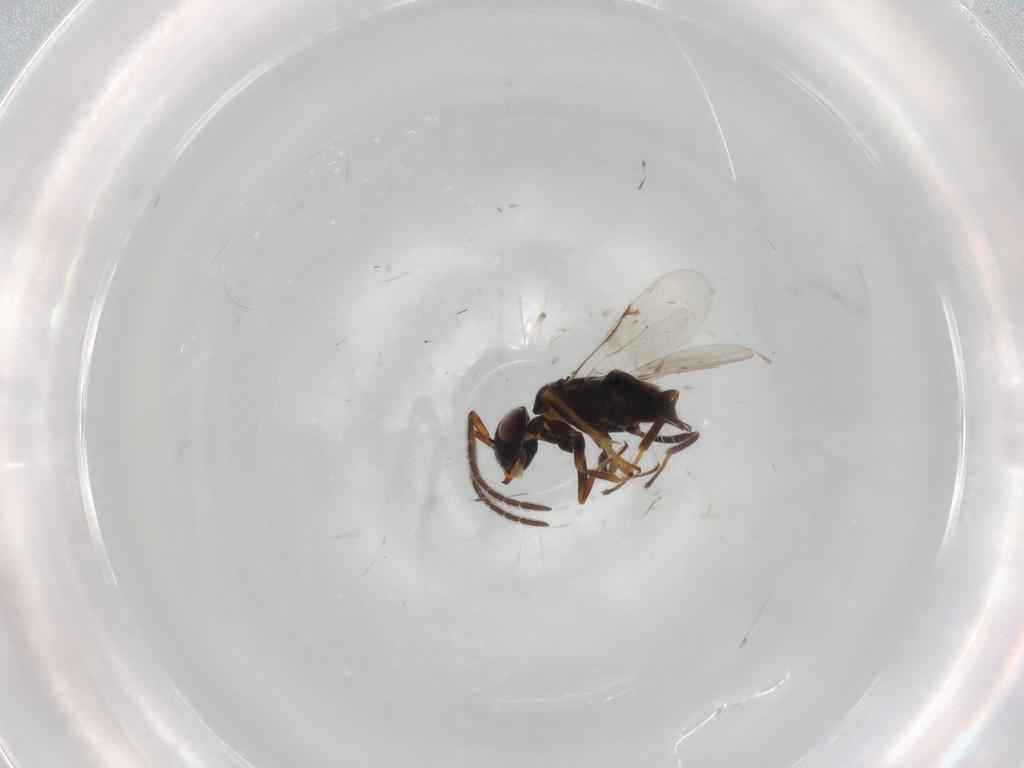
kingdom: Animalia
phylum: Arthropoda
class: Insecta
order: Hymenoptera
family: Encyrtidae
